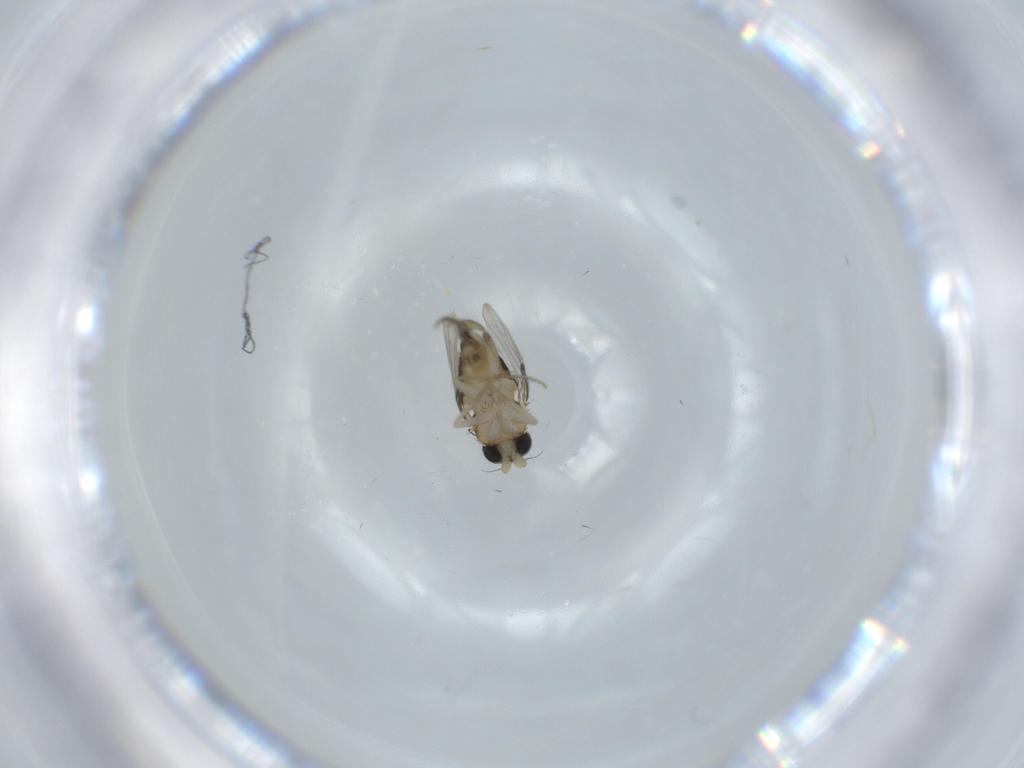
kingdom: Animalia
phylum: Arthropoda
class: Insecta
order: Diptera
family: Phoridae
